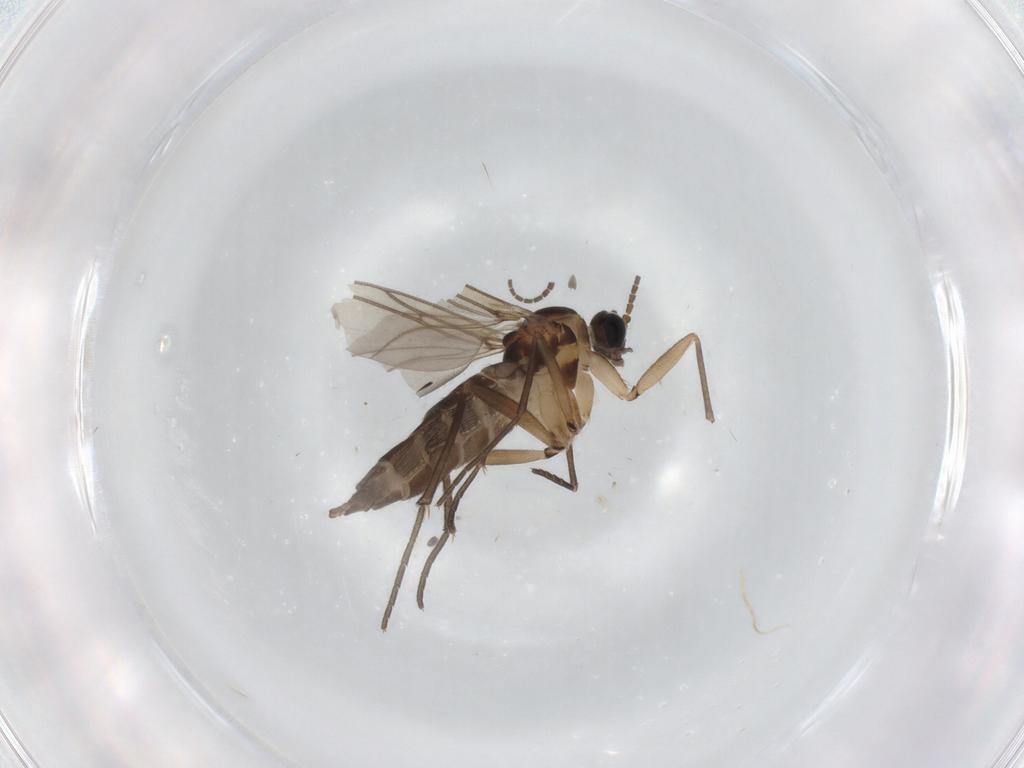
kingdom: Animalia
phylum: Arthropoda
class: Insecta
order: Diptera
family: Sciaridae
